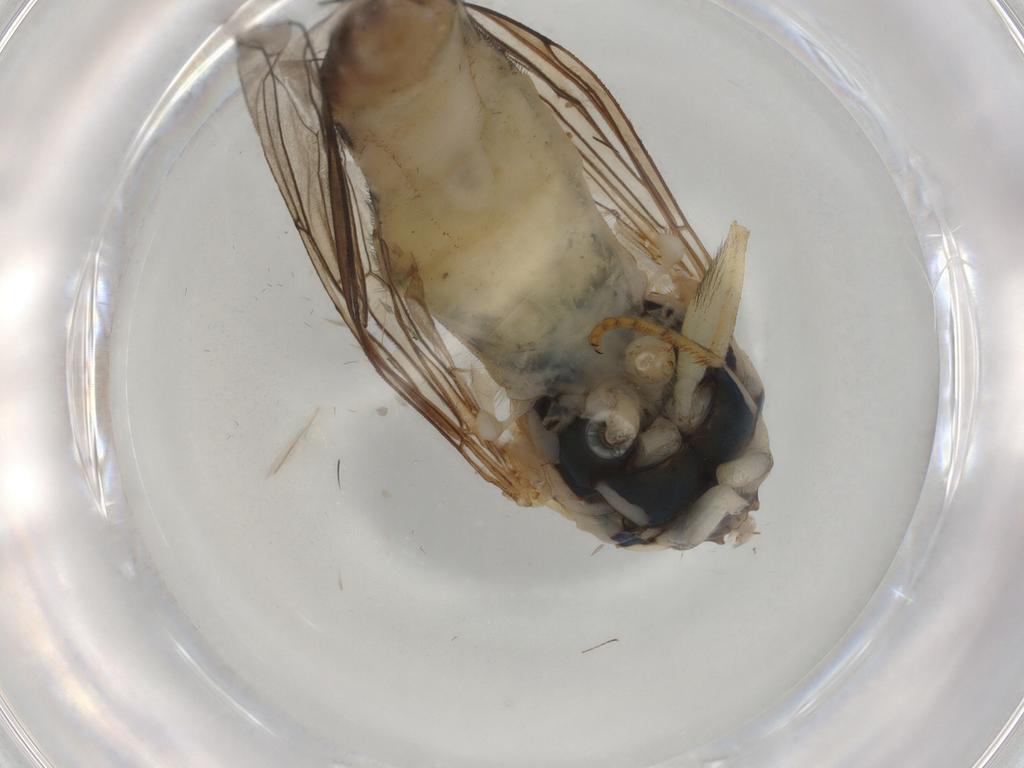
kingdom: Animalia
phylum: Arthropoda
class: Insecta
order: Diptera
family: Syrphidae
